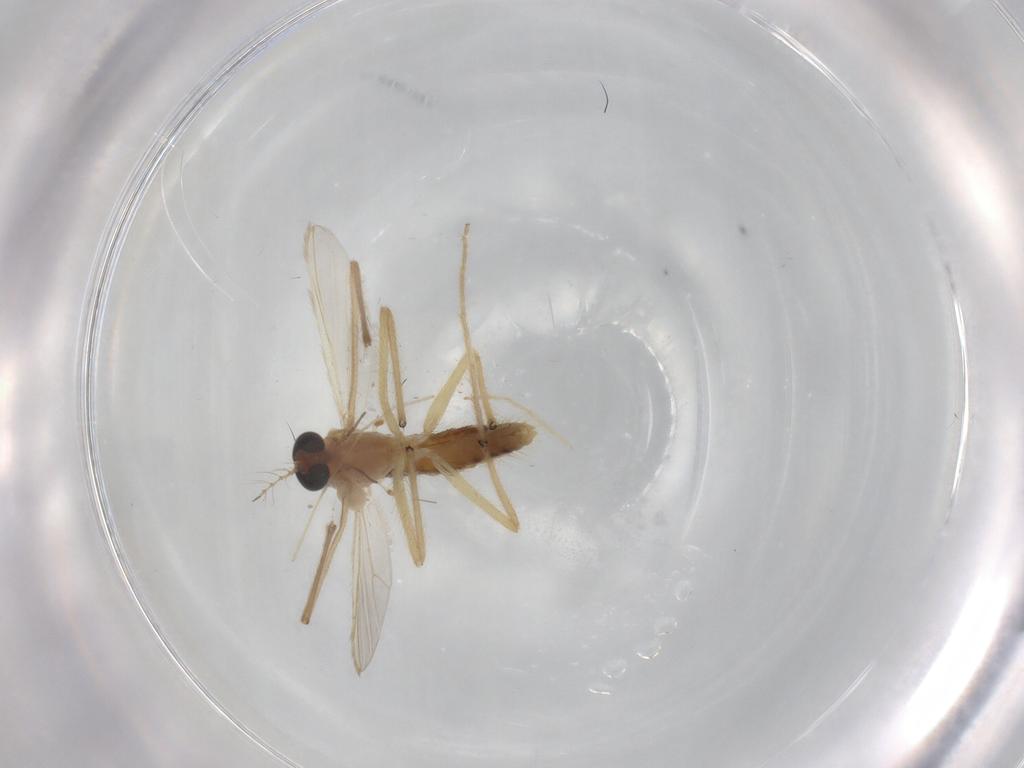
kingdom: Animalia
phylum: Arthropoda
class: Insecta
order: Diptera
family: Chironomidae
